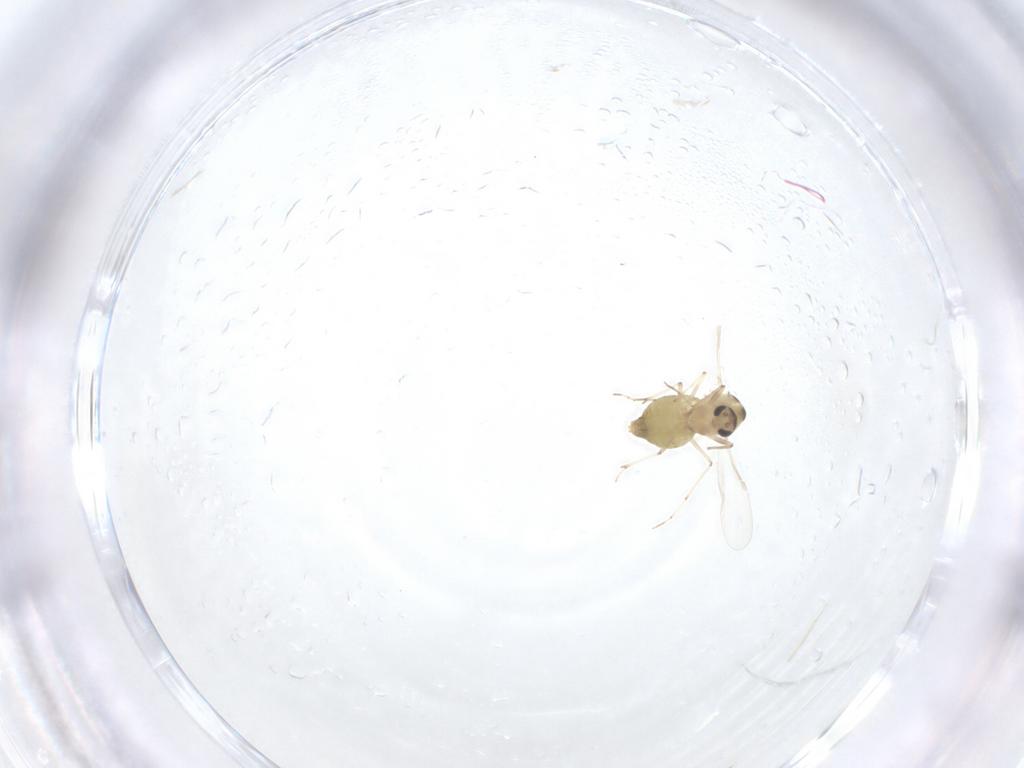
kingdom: Animalia
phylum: Arthropoda
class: Insecta
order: Diptera
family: Chironomidae
